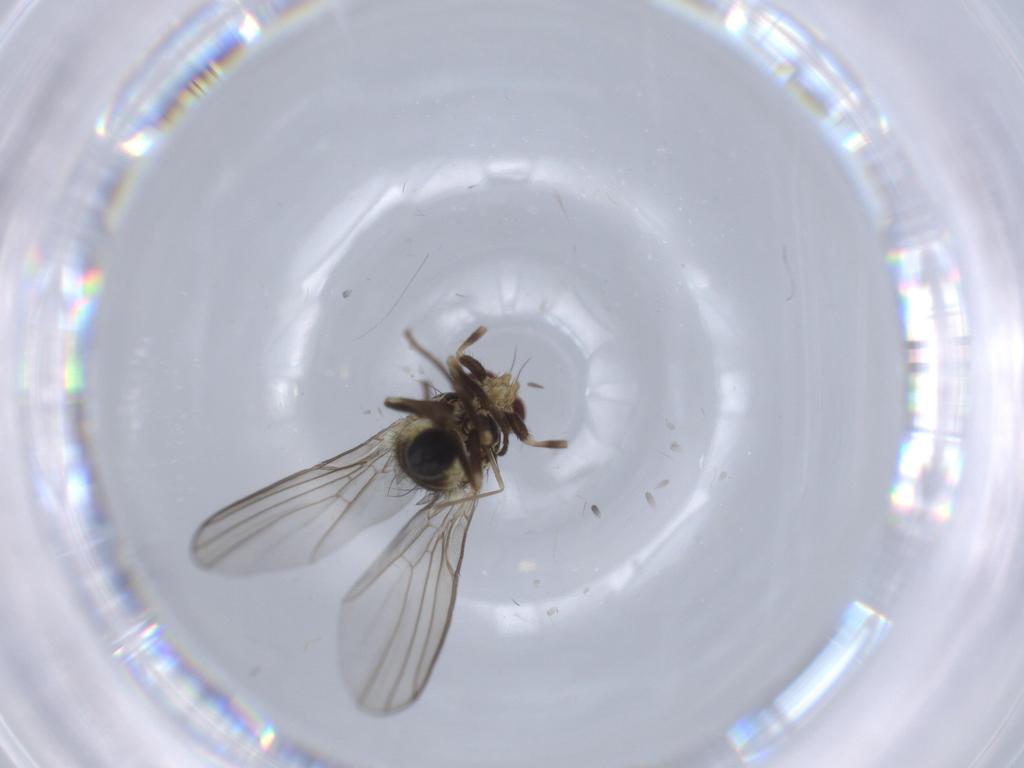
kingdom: Animalia
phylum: Arthropoda
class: Insecta
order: Diptera
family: Agromyzidae
